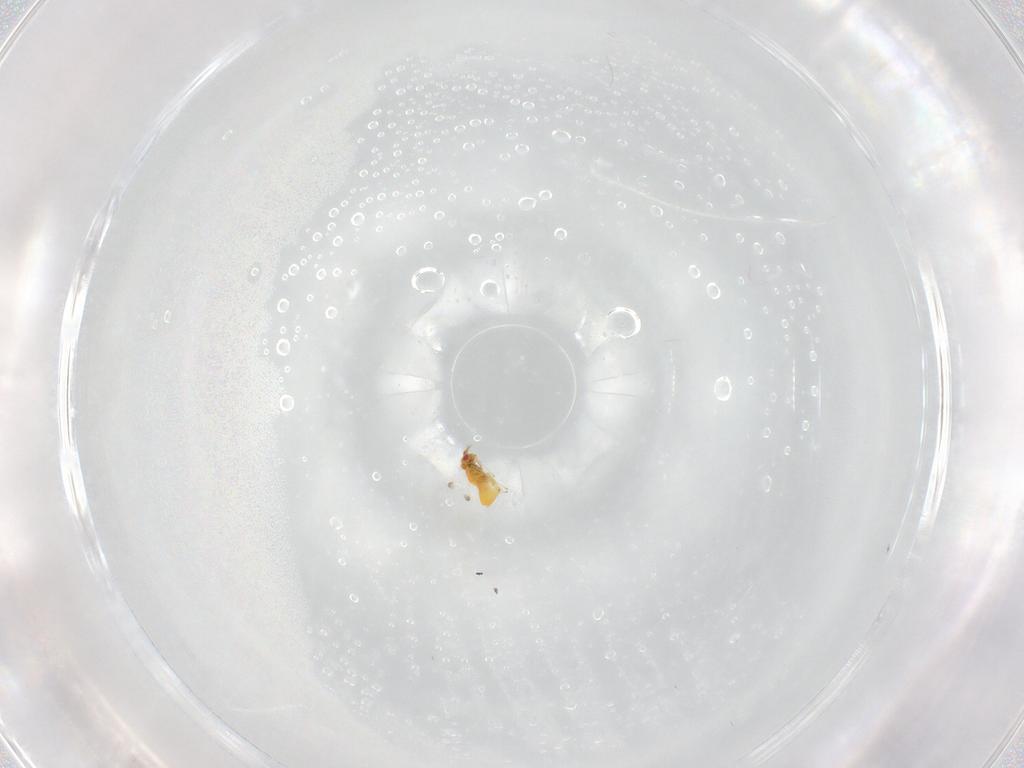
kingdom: Animalia
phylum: Arthropoda
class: Insecta
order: Hymenoptera
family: Trichogrammatidae
